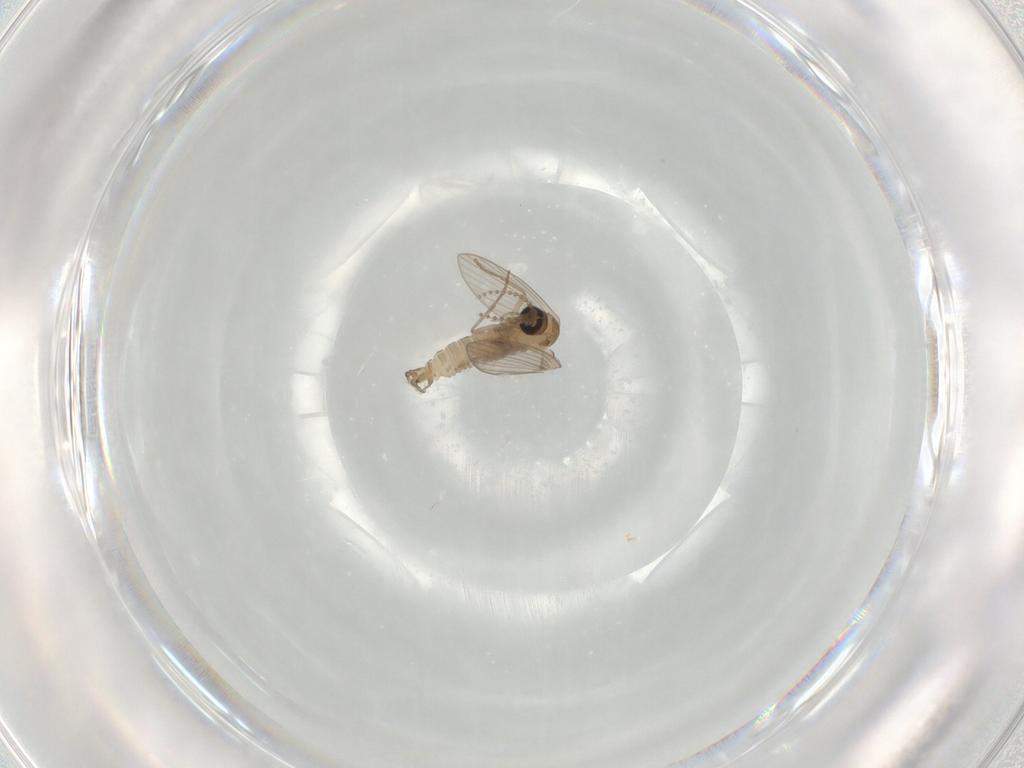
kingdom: Animalia
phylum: Arthropoda
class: Insecta
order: Diptera
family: Psychodidae
